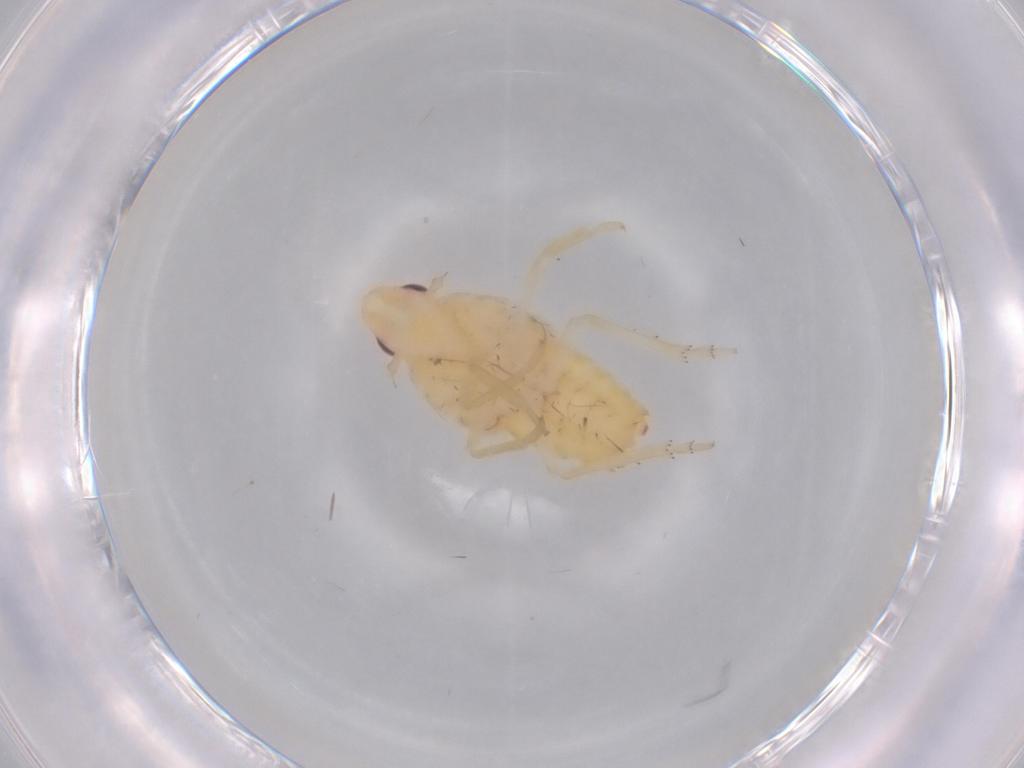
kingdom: Animalia
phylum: Arthropoda
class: Insecta
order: Hemiptera
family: Cicadellidae
